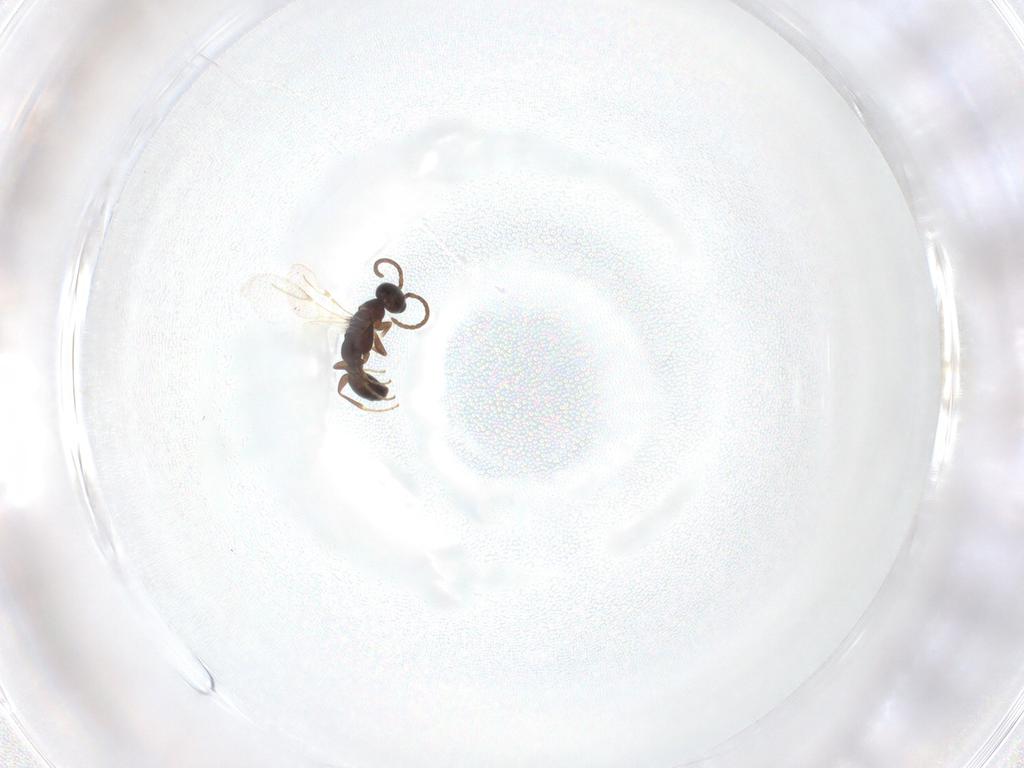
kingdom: Animalia
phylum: Arthropoda
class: Insecta
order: Hymenoptera
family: Bethylidae
